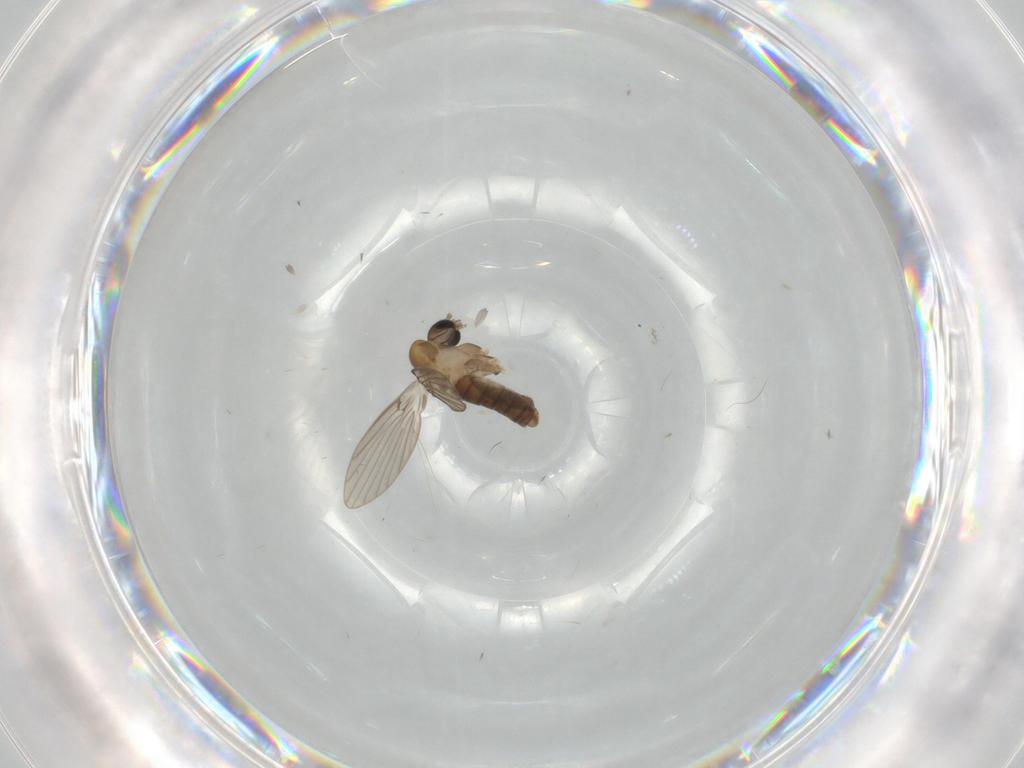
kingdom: Animalia
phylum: Arthropoda
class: Insecta
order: Diptera
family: Psychodidae
